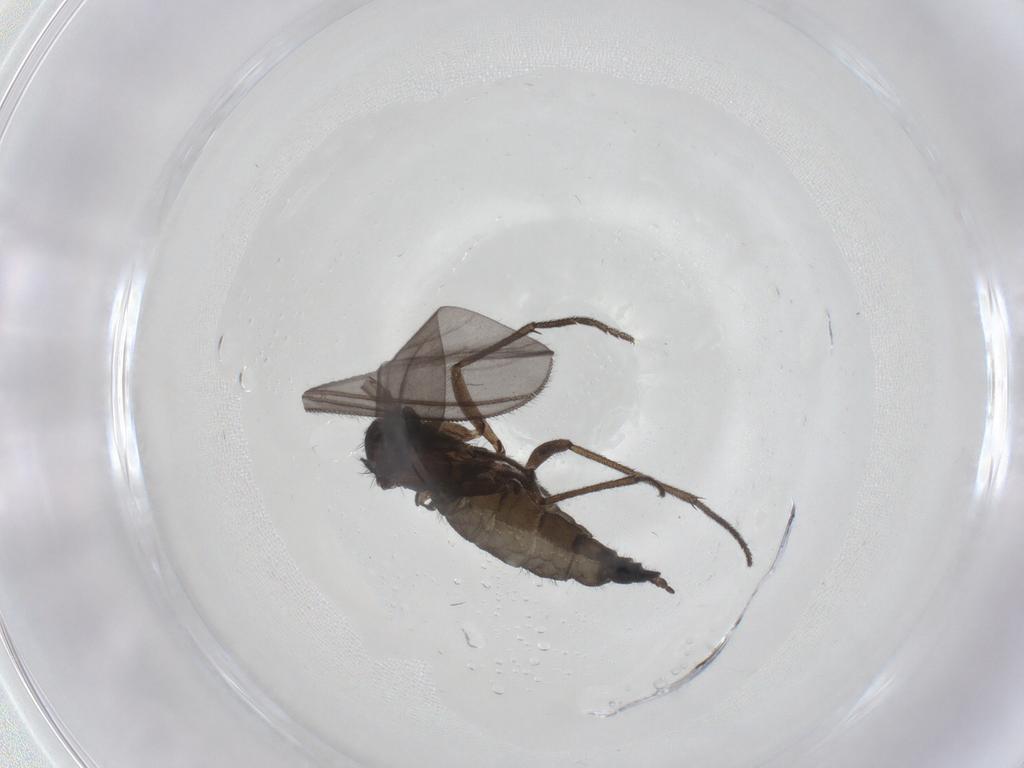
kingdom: Animalia
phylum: Arthropoda
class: Insecta
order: Diptera
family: Sciaridae
